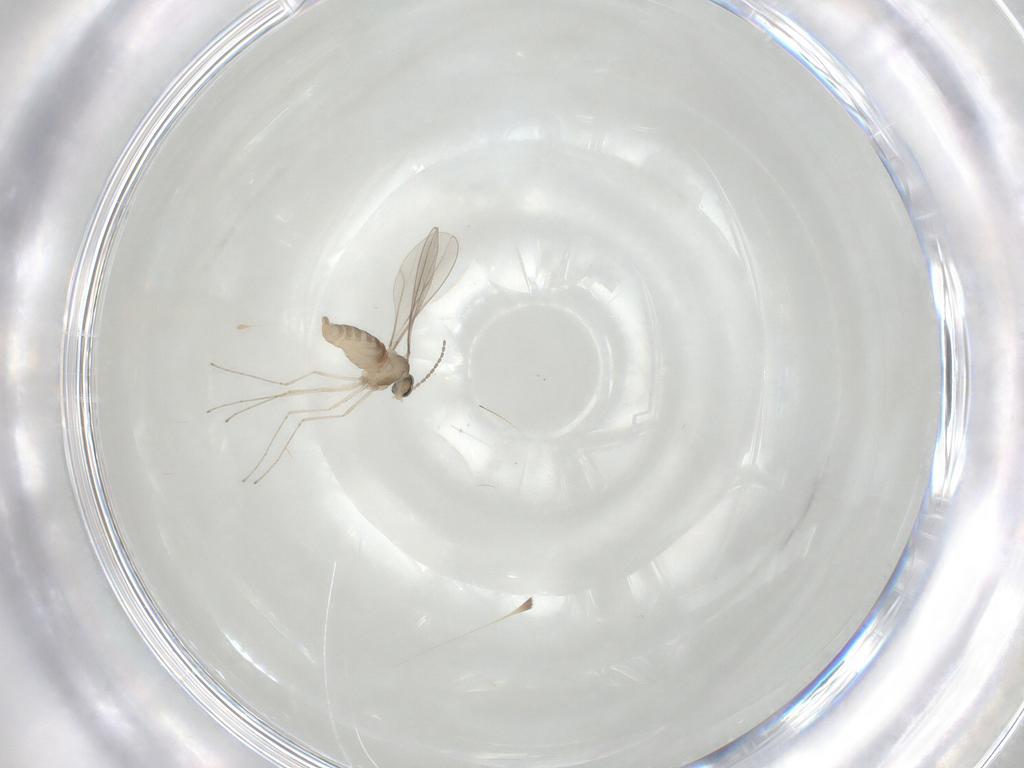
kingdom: Animalia
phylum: Arthropoda
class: Insecta
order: Diptera
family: Cecidomyiidae
